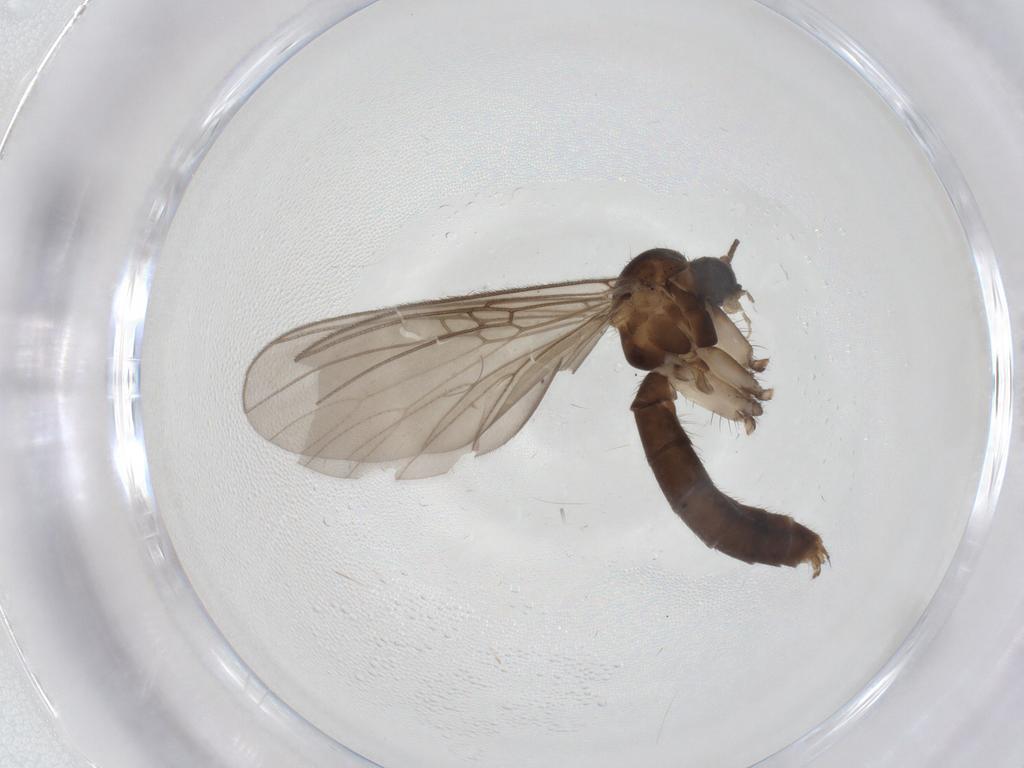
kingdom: Animalia
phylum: Arthropoda
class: Insecta
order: Diptera
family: Mycetophilidae
